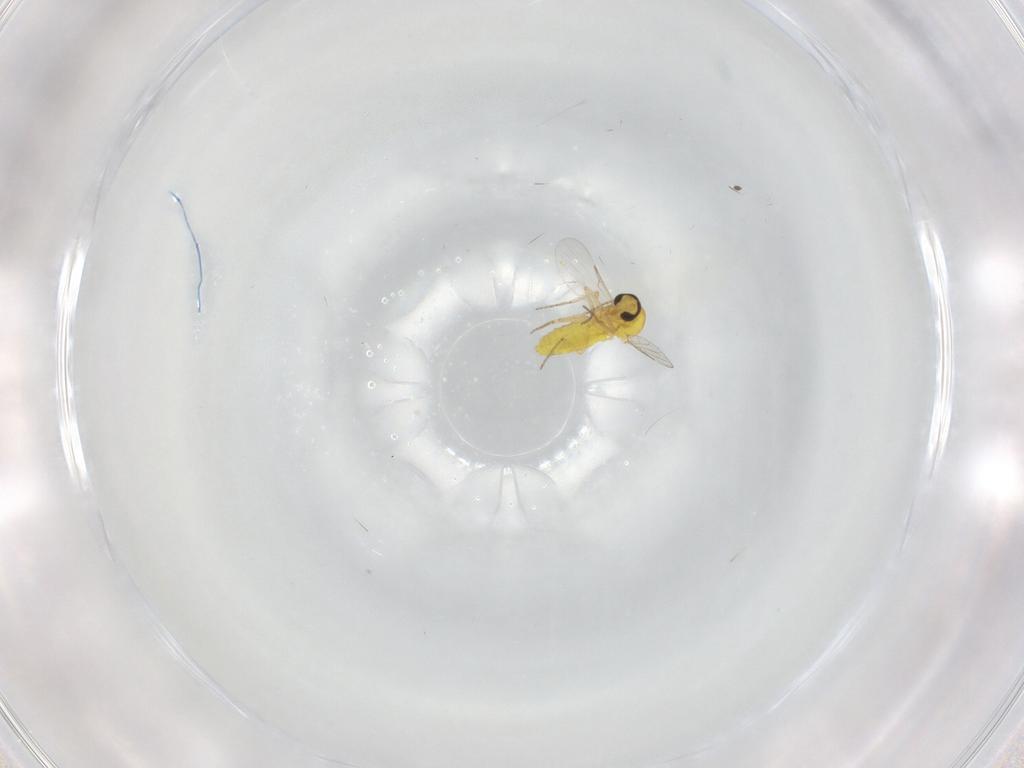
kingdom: Animalia
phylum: Arthropoda
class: Insecta
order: Diptera
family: Ceratopogonidae
